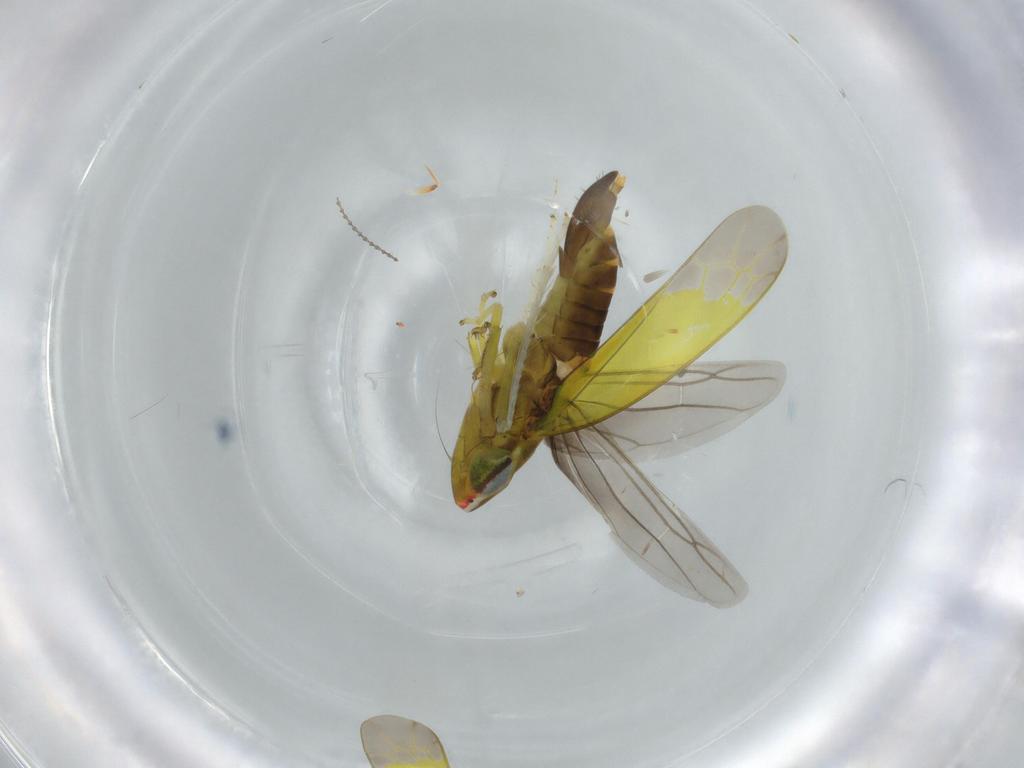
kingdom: Animalia
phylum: Arthropoda
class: Insecta
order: Hemiptera
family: Cicadellidae
